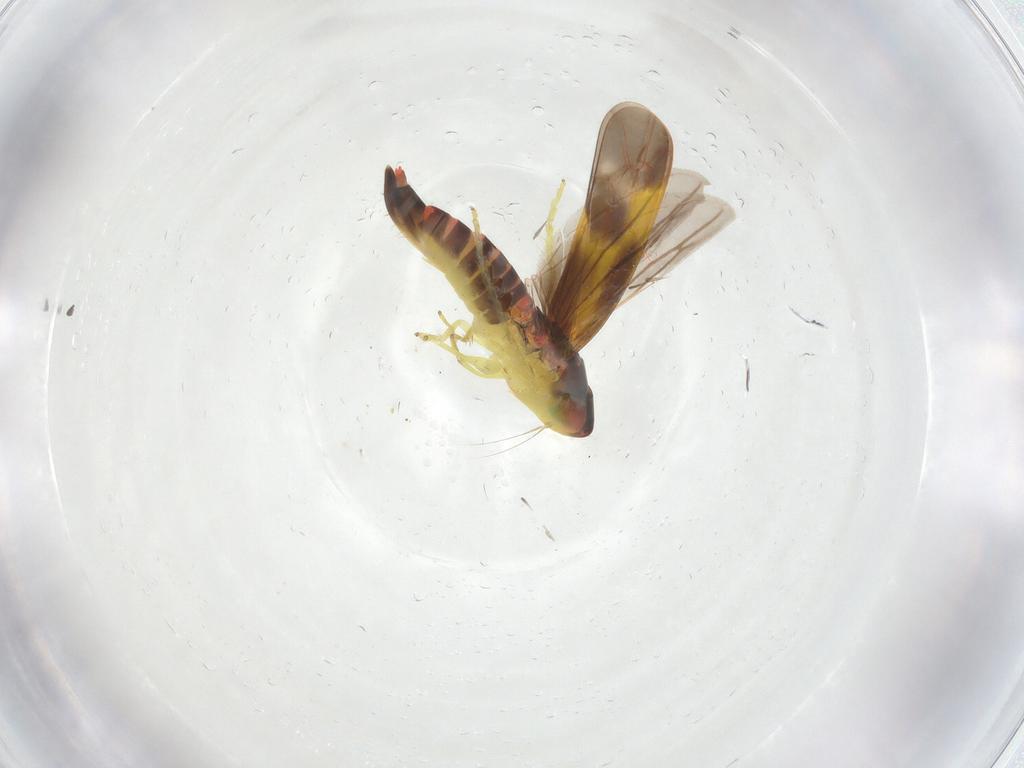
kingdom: Animalia
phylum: Arthropoda
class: Insecta
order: Hemiptera
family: Cicadellidae
